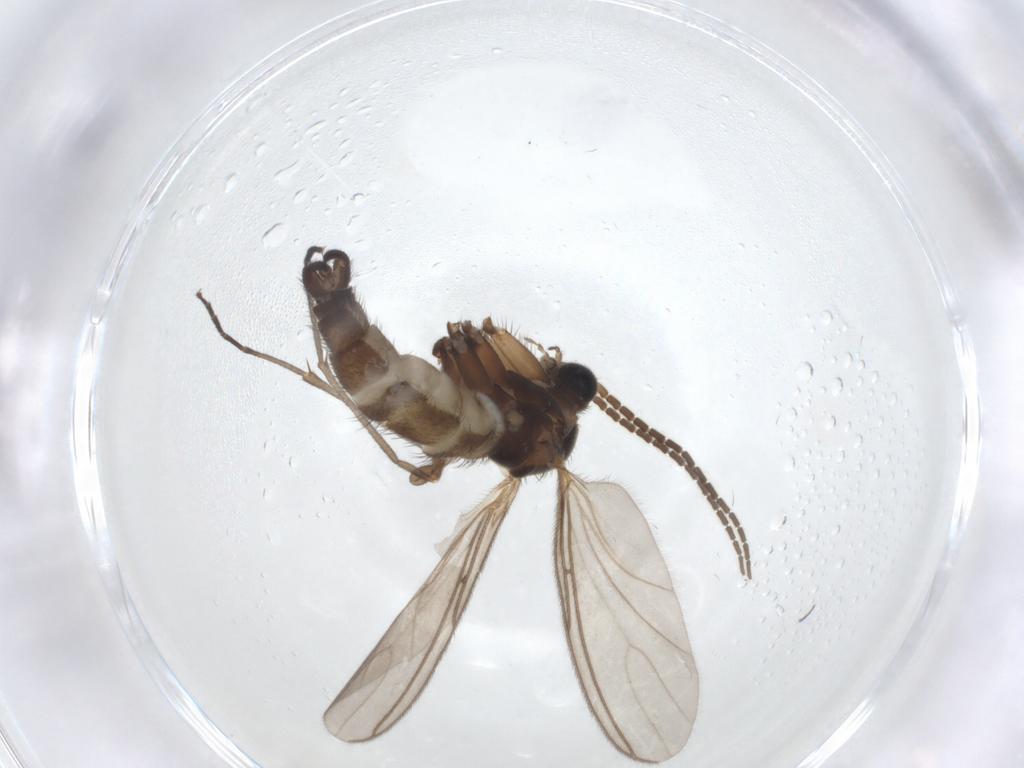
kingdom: Animalia
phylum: Arthropoda
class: Insecta
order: Diptera
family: Sciaridae
